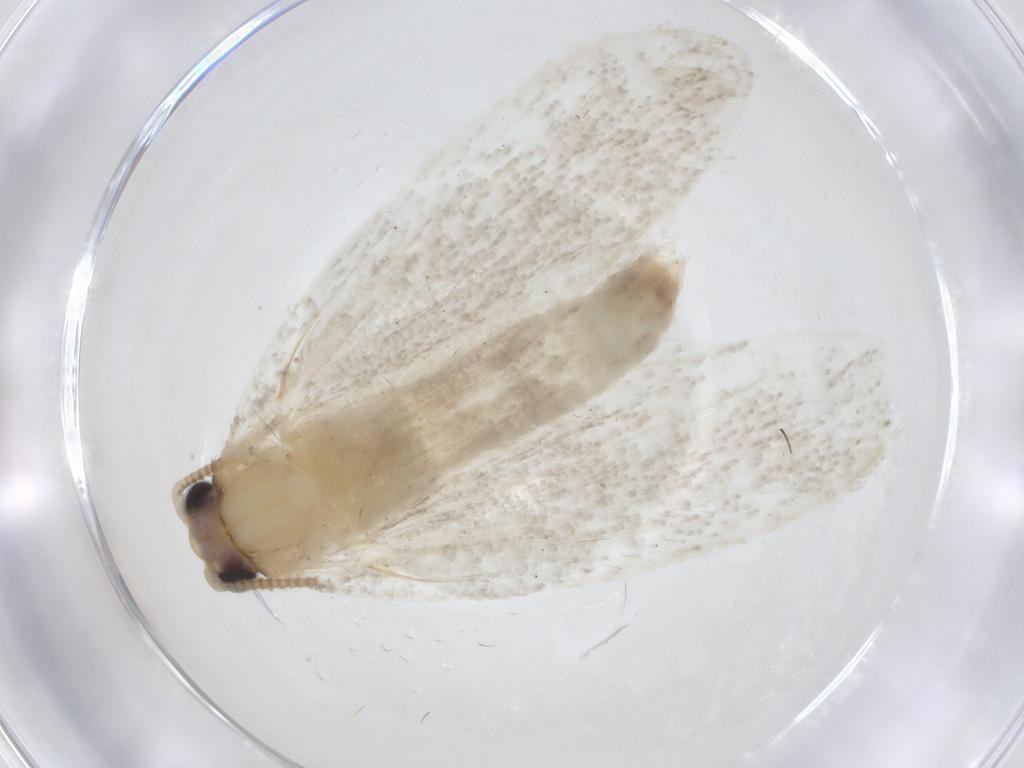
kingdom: Animalia
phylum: Arthropoda
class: Insecta
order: Lepidoptera
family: Tineidae
